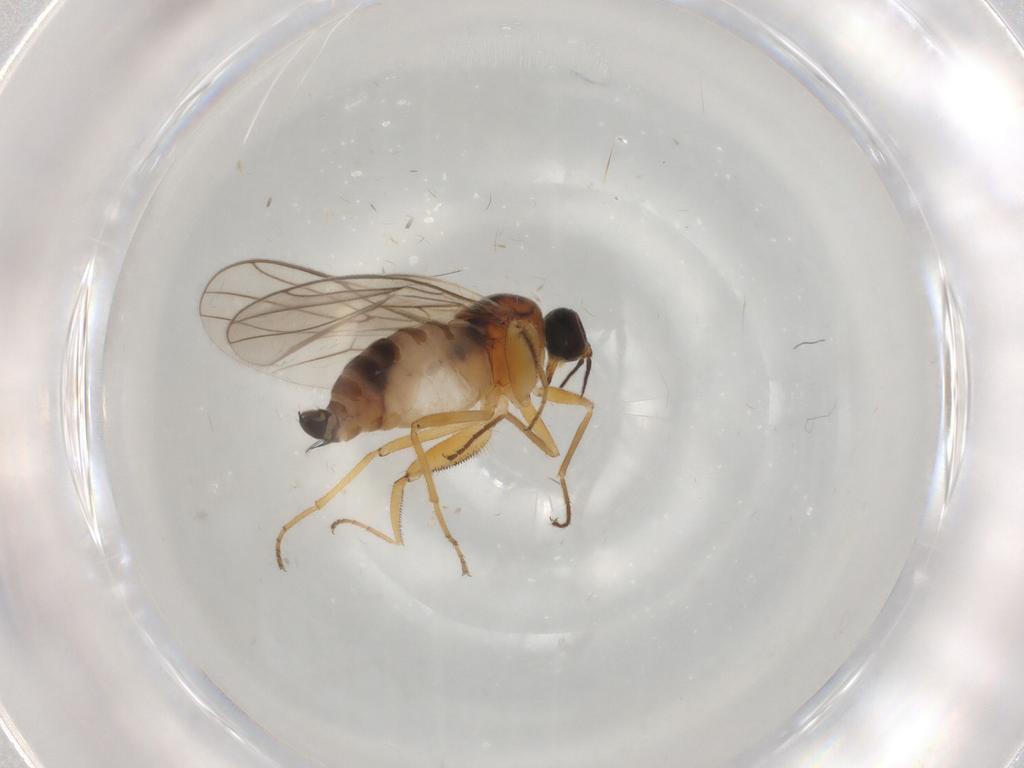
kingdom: Animalia
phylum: Arthropoda
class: Insecta
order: Diptera
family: Hybotidae
